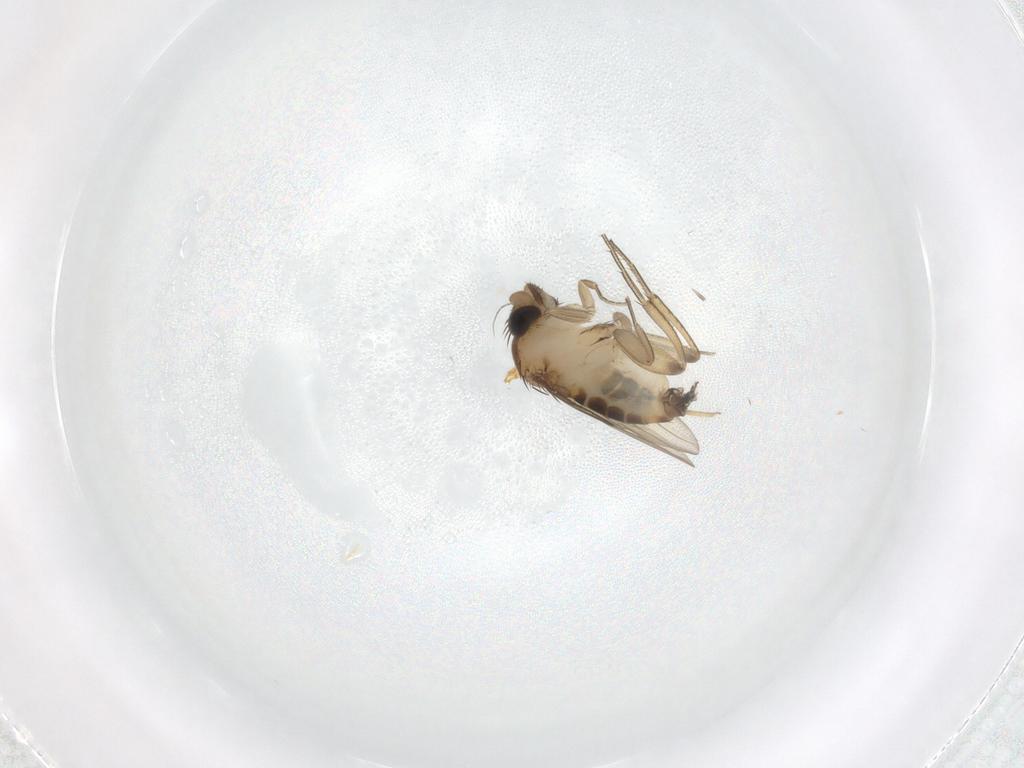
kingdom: Animalia
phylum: Arthropoda
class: Insecta
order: Diptera
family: Phoridae
